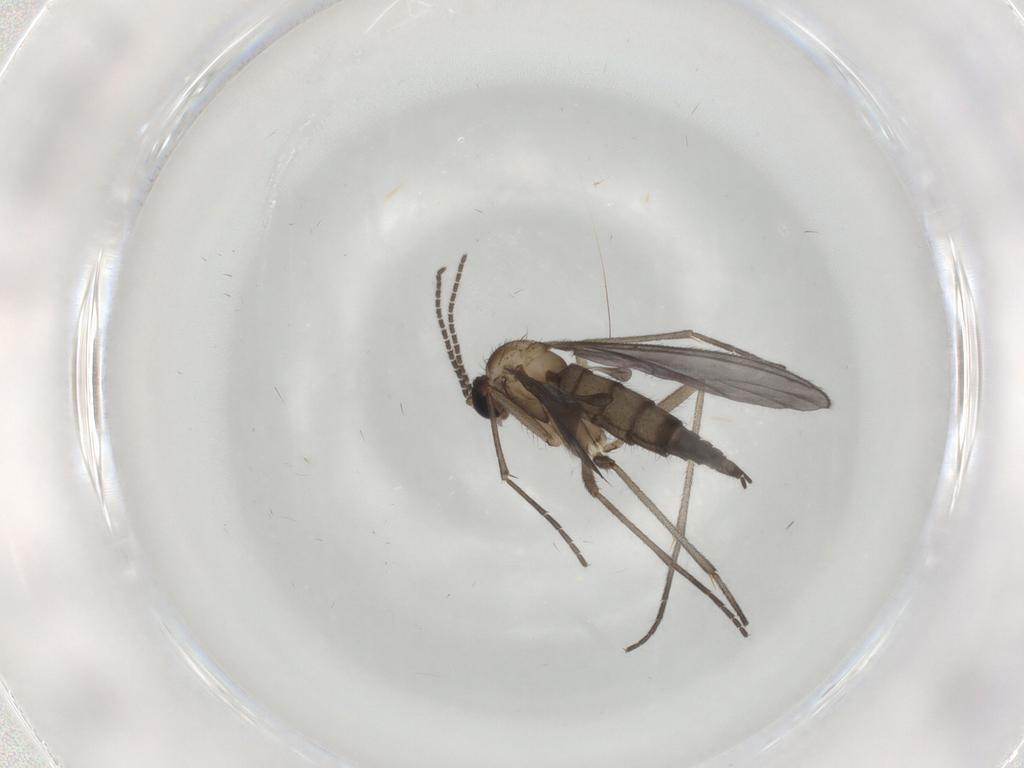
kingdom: Animalia
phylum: Arthropoda
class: Insecta
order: Diptera
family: Sciaridae
